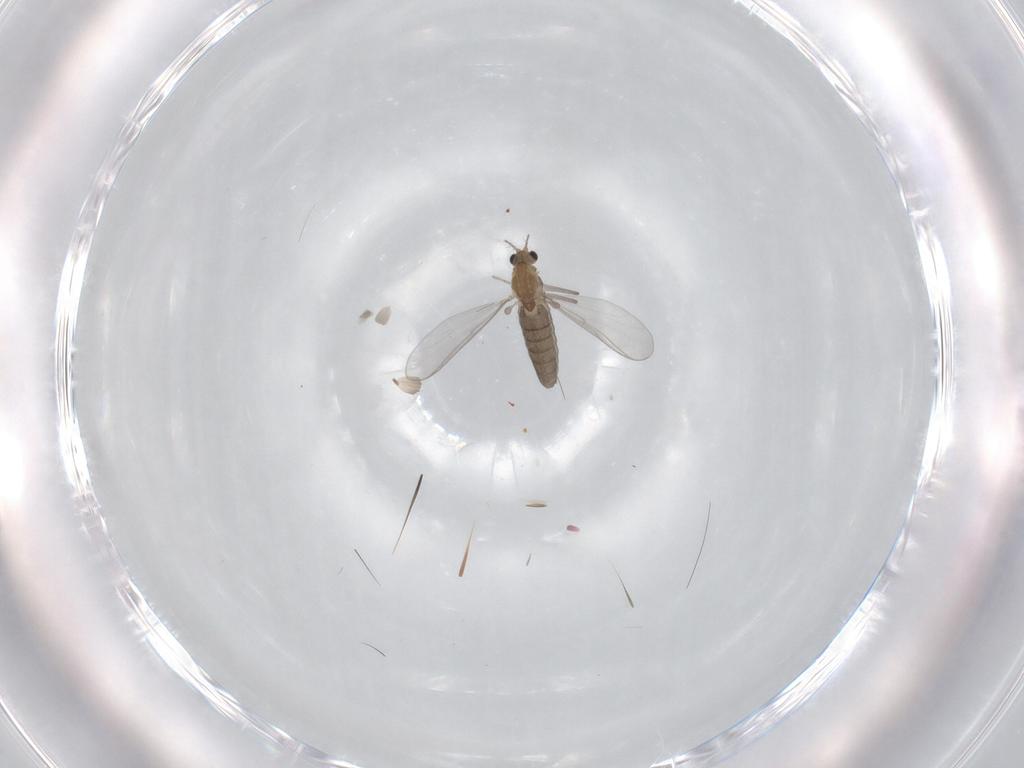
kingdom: Animalia
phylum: Arthropoda
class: Insecta
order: Diptera
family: Chironomidae
